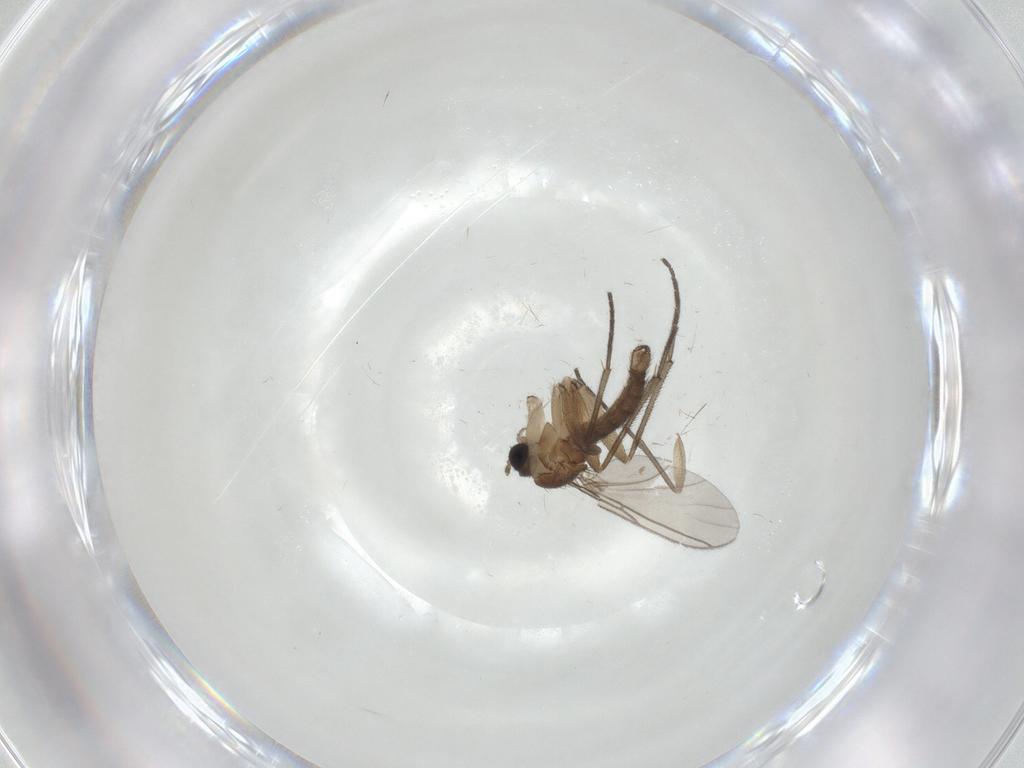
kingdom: Animalia
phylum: Arthropoda
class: Insecta
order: Diptera
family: Sciaridae
